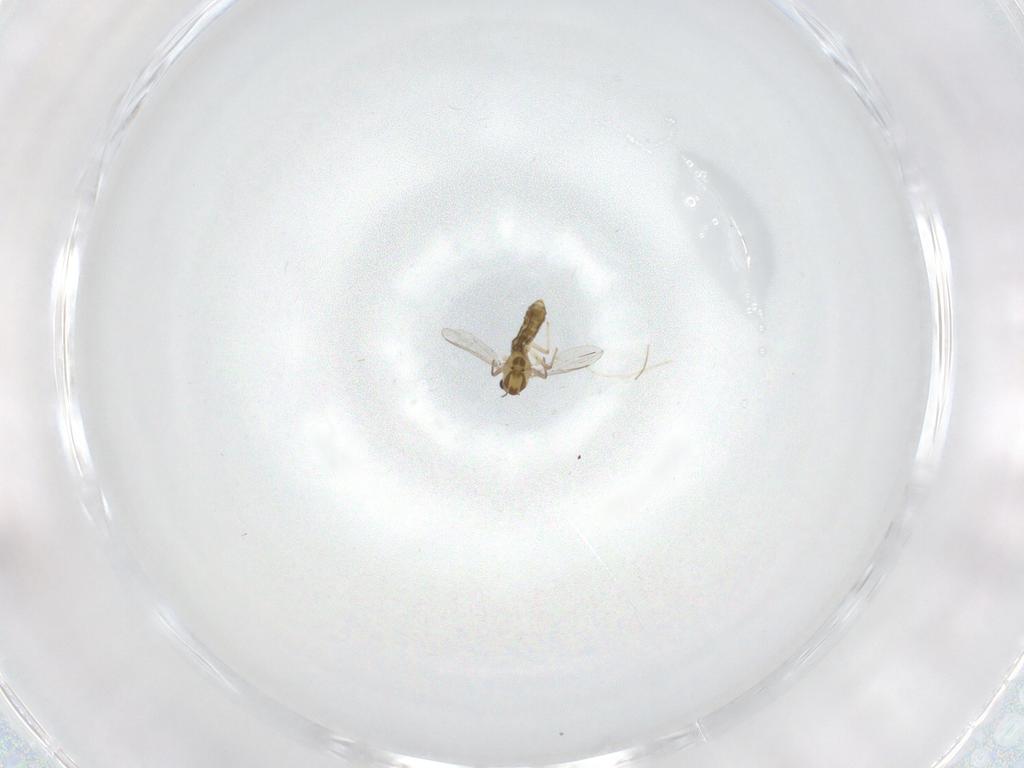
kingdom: Animalia
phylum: Arthropoda
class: Insecta
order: Diptera
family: Cecidomyiidae
